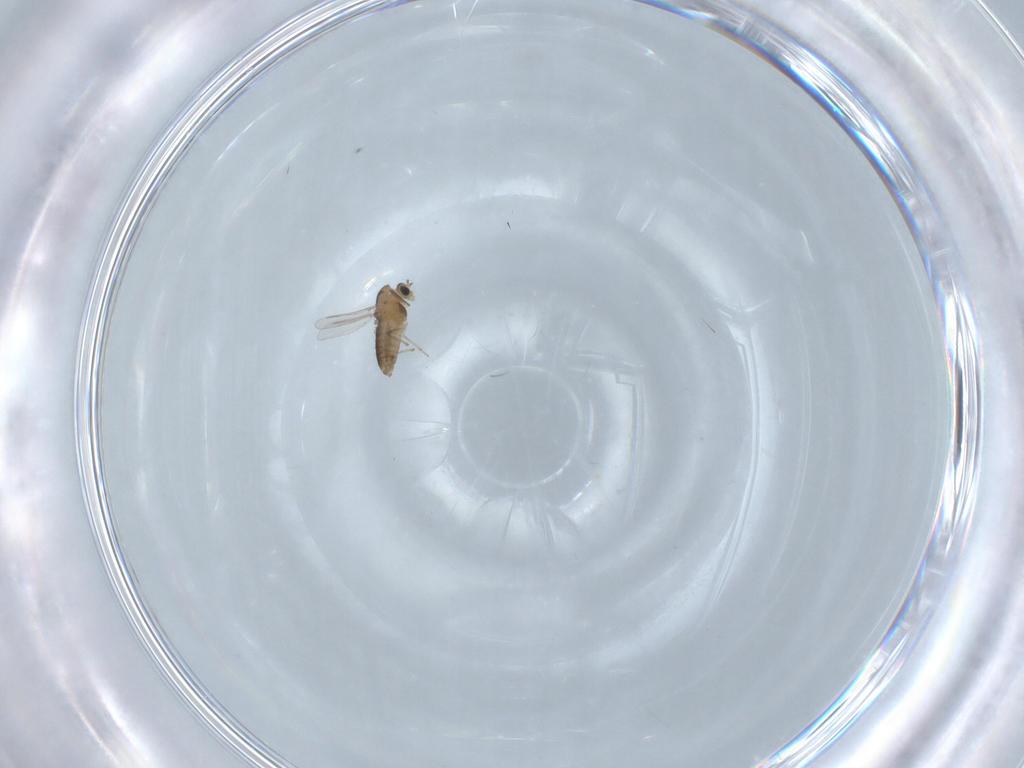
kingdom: Animalia
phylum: Arthropoda
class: Insecta
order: Diptera
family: Chironomidae
